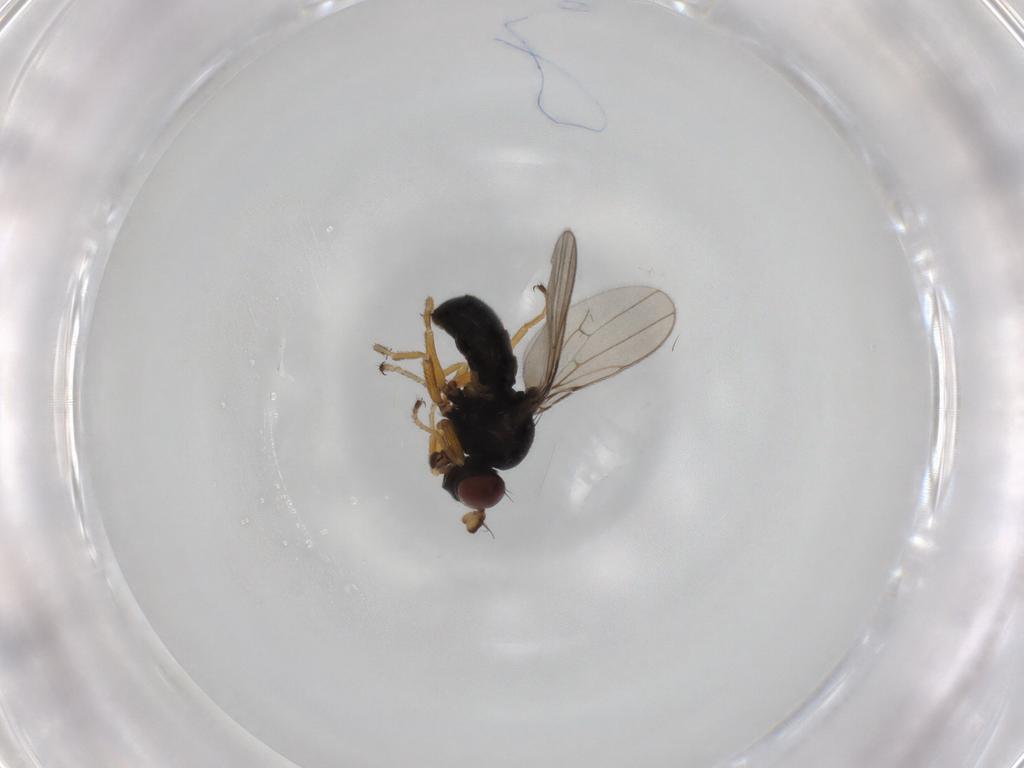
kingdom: Animalia
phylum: Arthropoda
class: Insecta
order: Diptera
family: Ephydridae
